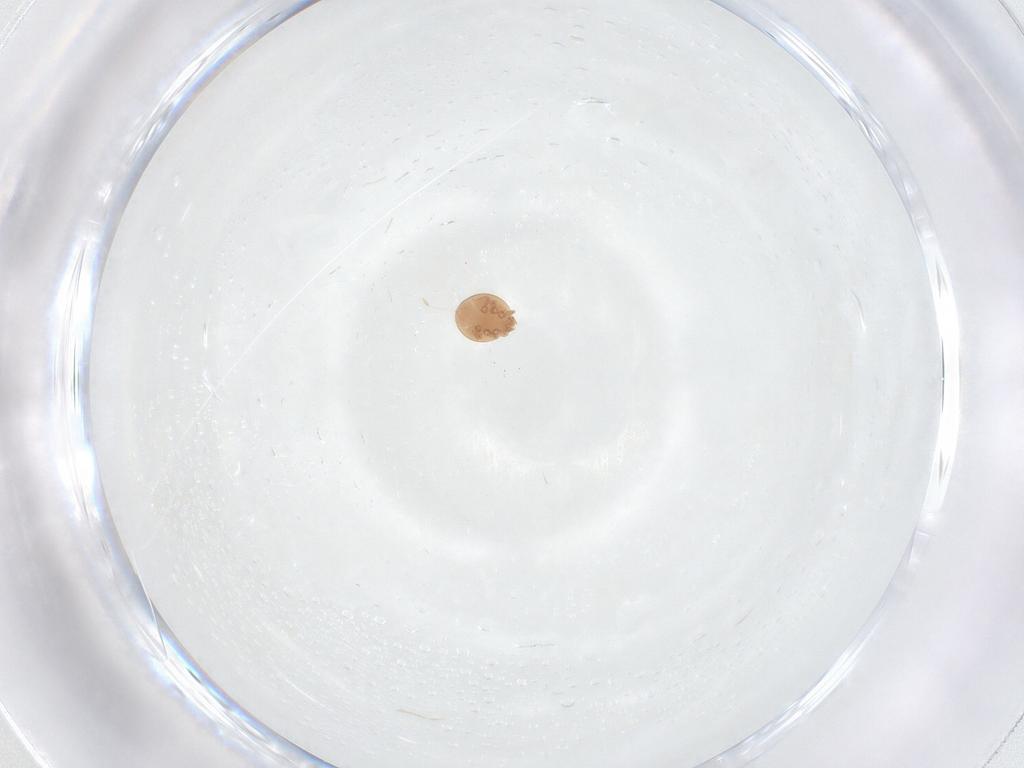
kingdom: Animalia
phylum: Arthropoda
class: Arachnida
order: Mesostigmata
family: Trematuridae
